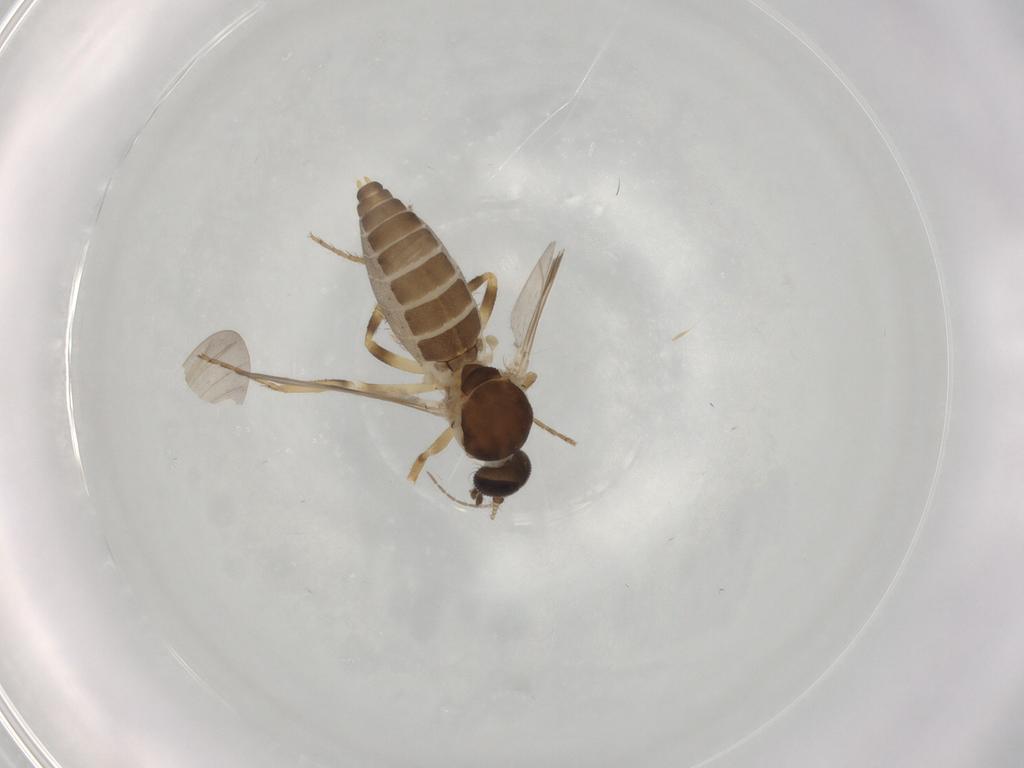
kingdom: Animalia
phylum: Arthropoda
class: Insecta
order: Diptera
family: Ceratopogonidae
